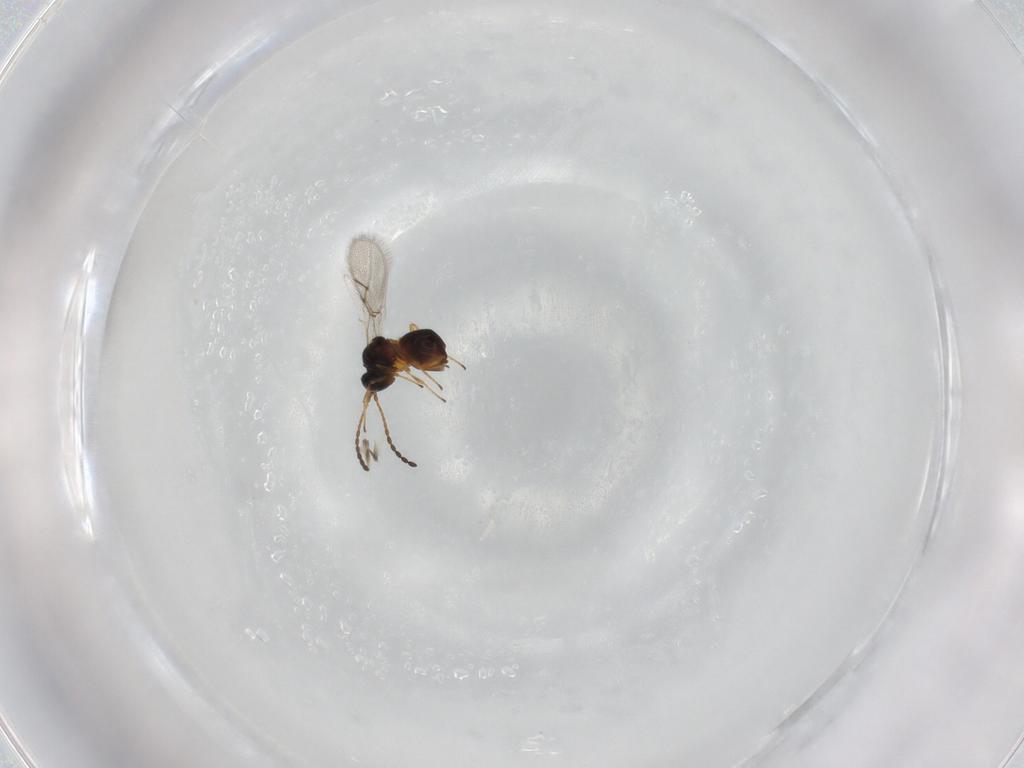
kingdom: Animalia
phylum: Arthropoda
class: Insecta
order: Hymenoptera
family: Figitidae
